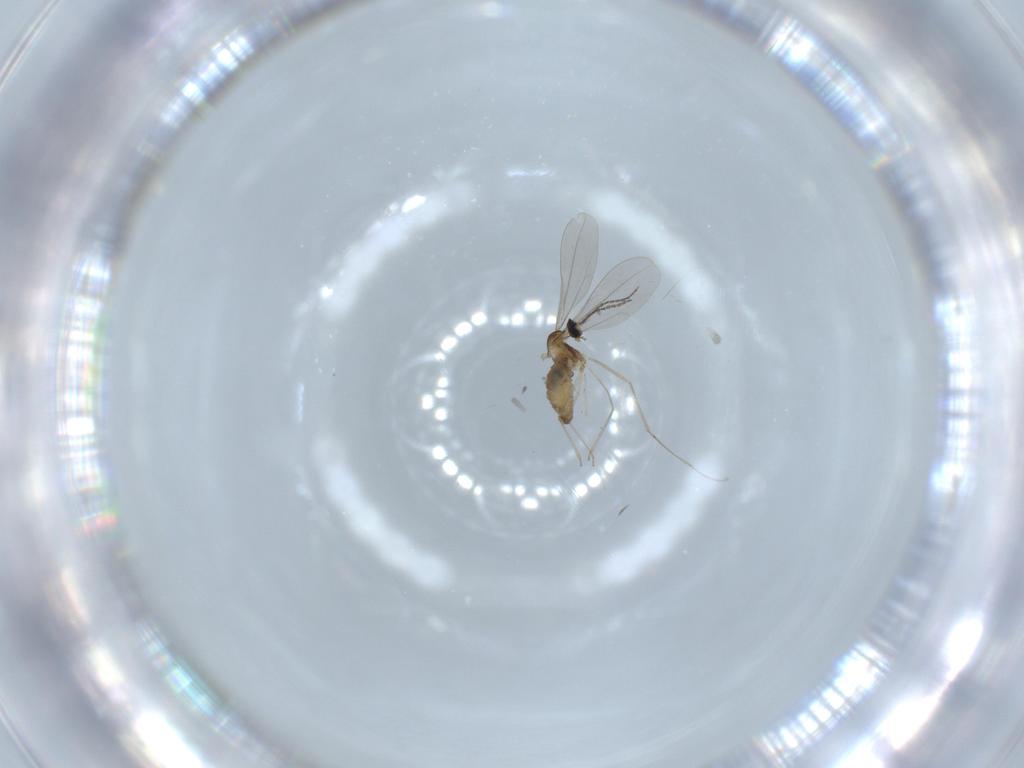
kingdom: Animalia
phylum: Arthropoda
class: Insecta
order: Diptera
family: Cecidomyiidae
